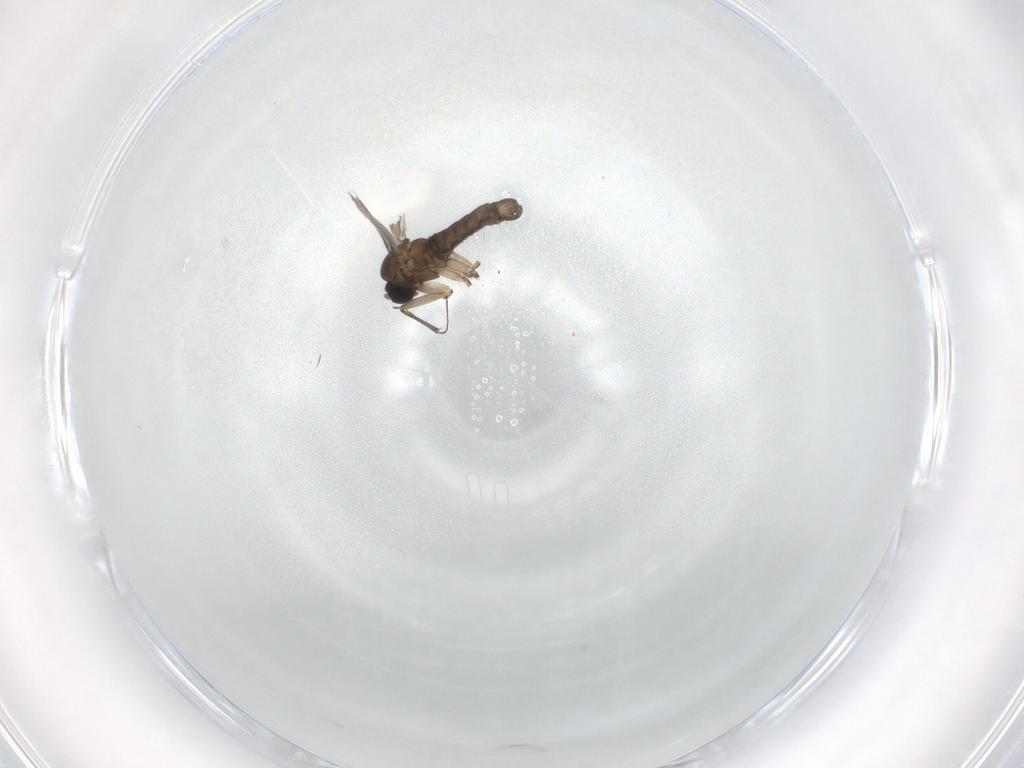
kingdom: Animalia
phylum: Arthropoda
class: Insecta
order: Diptera
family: Sciaridae
